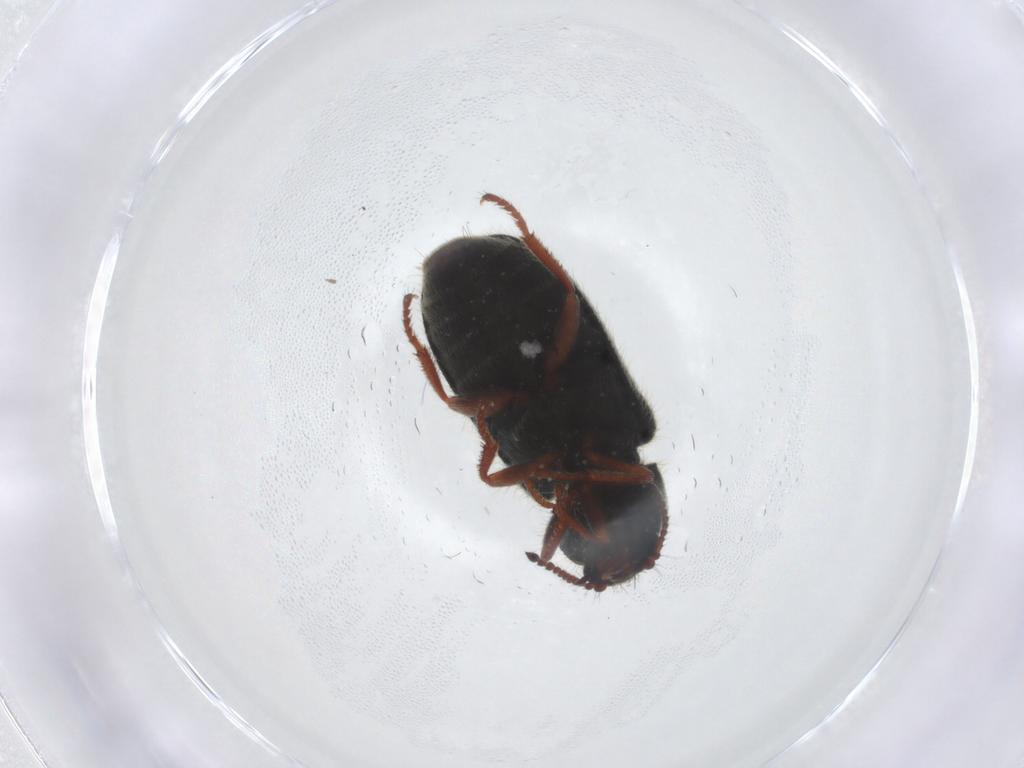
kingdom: Animalia
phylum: Arthropoda
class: Insecta
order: Coleoptera
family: Melyridae
